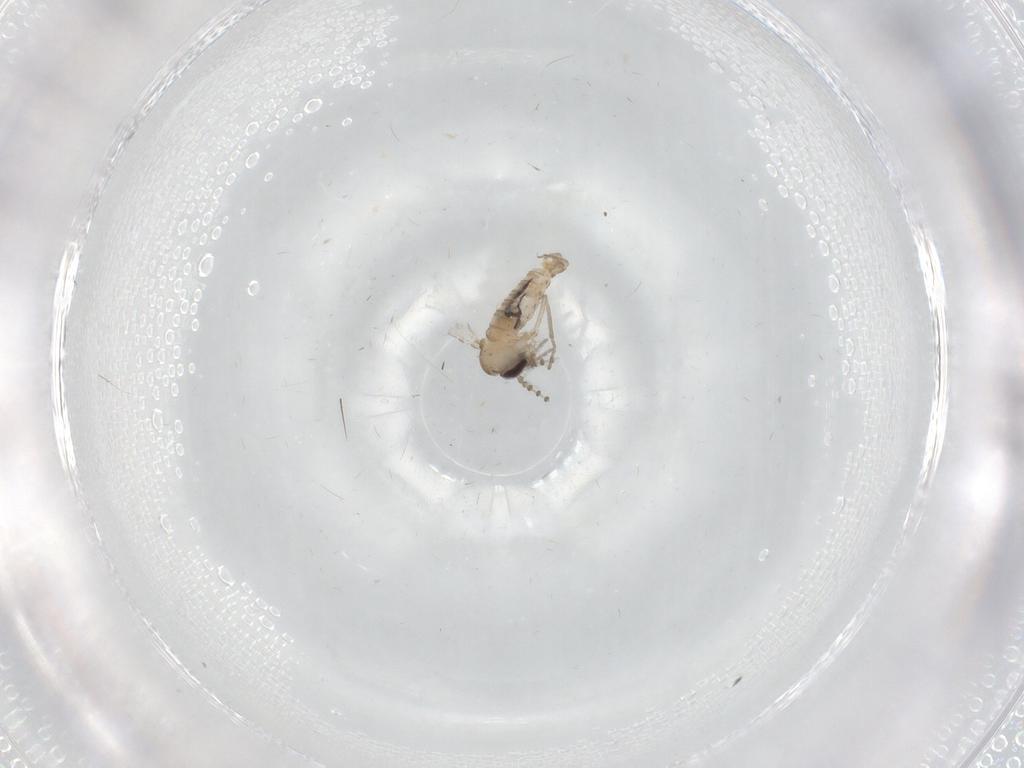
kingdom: Animalia
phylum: Arthropoda
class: Insecta
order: Diptera
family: Psychodidae
